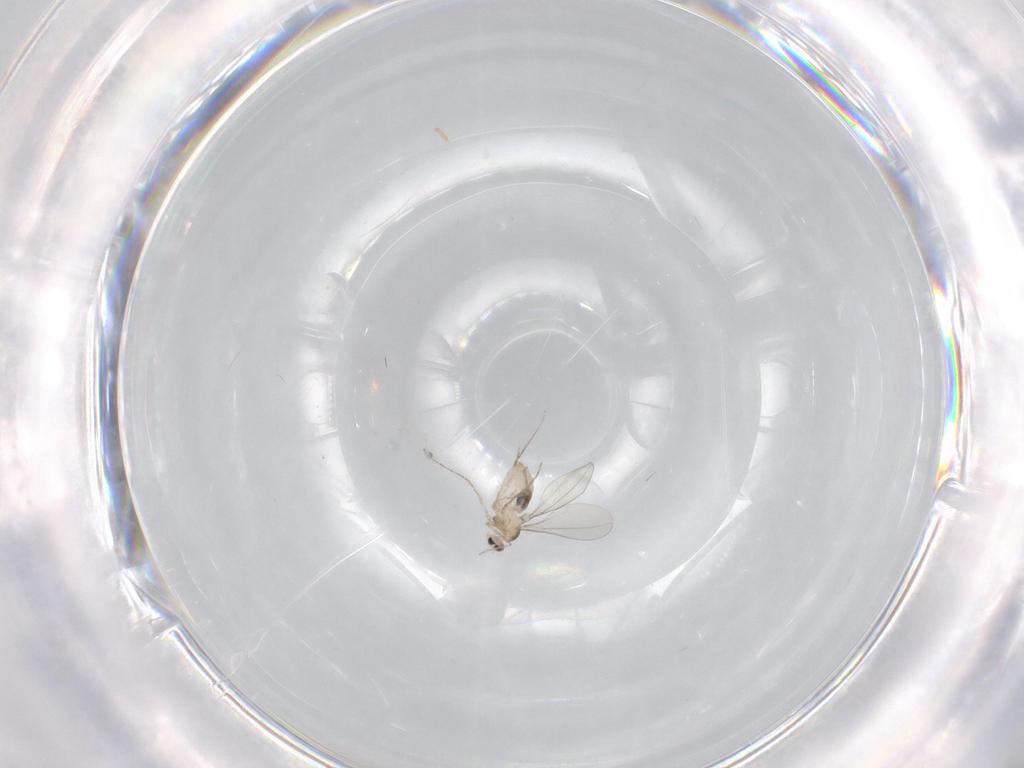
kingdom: Animalia
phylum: Arthropoda
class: Insecta
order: Diptera
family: Cecidomyiidae
